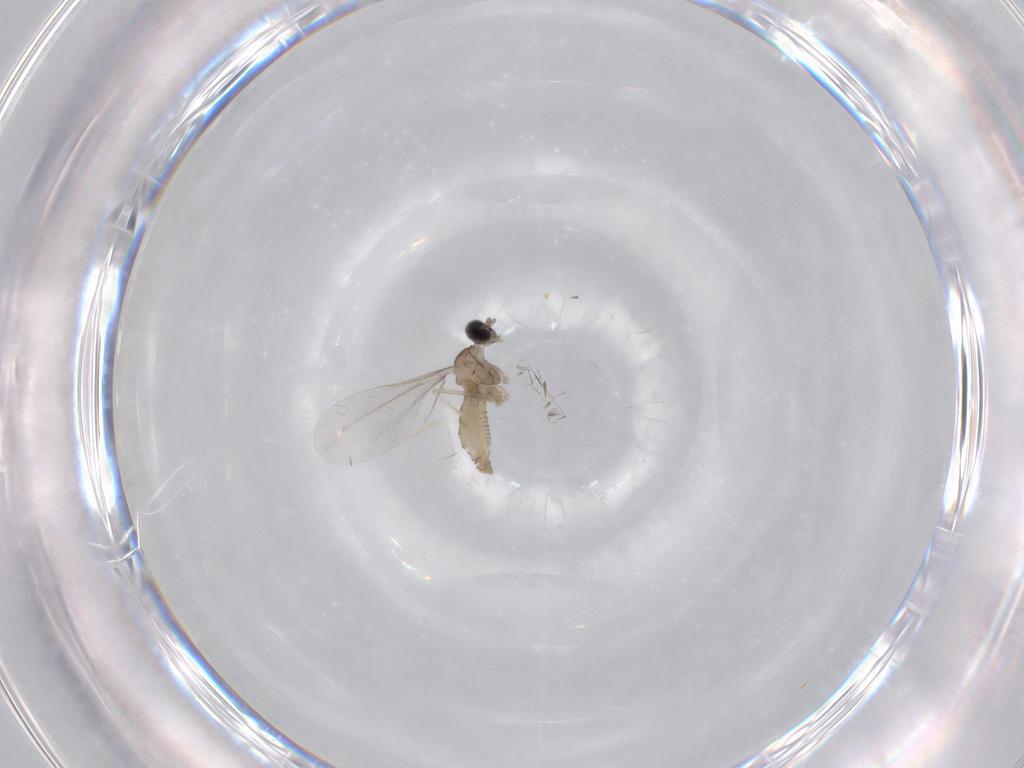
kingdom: Animalia
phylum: Arthropoda
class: Insecta
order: Diptera
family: Cecidomyiidae
